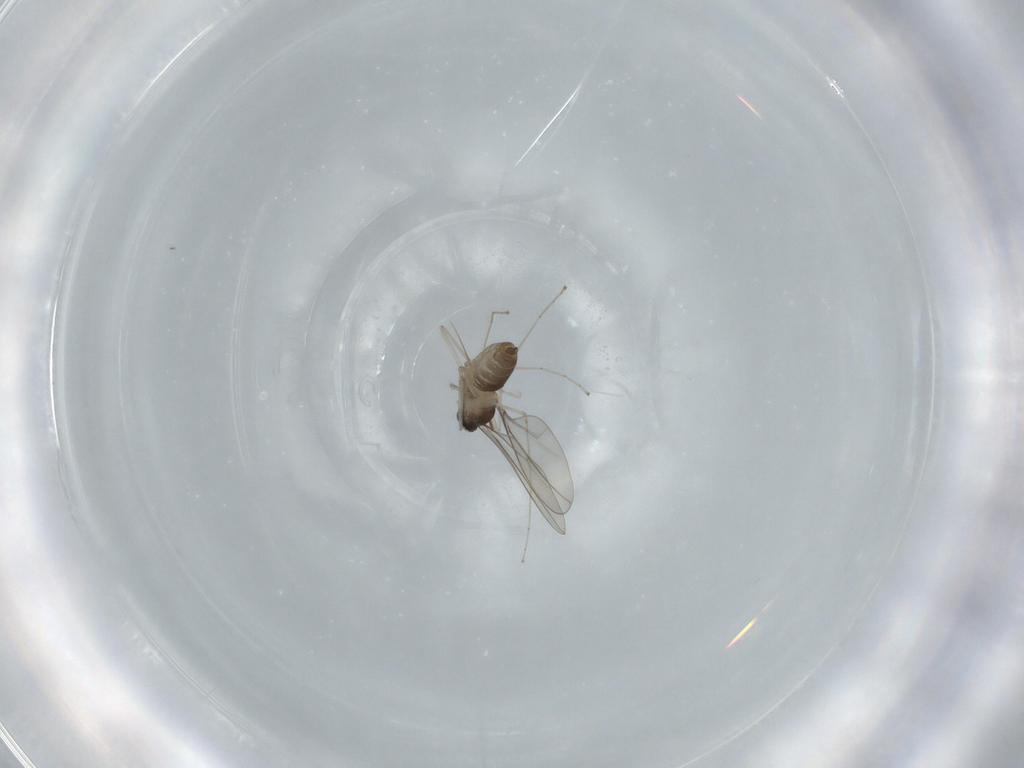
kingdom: Animalia
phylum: Arthropoda
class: Insecta
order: Diptera
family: Cecidomyiidae
